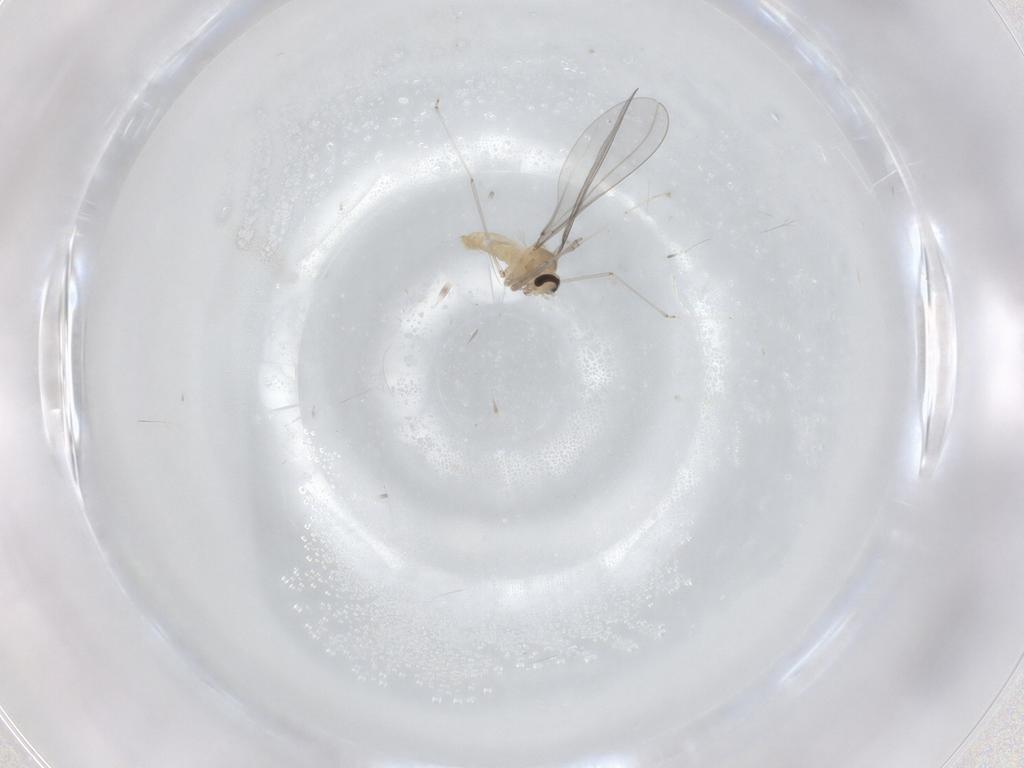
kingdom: Animalia
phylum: Arthropoda
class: Insecta
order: Diptera
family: Cecidomyiidae
